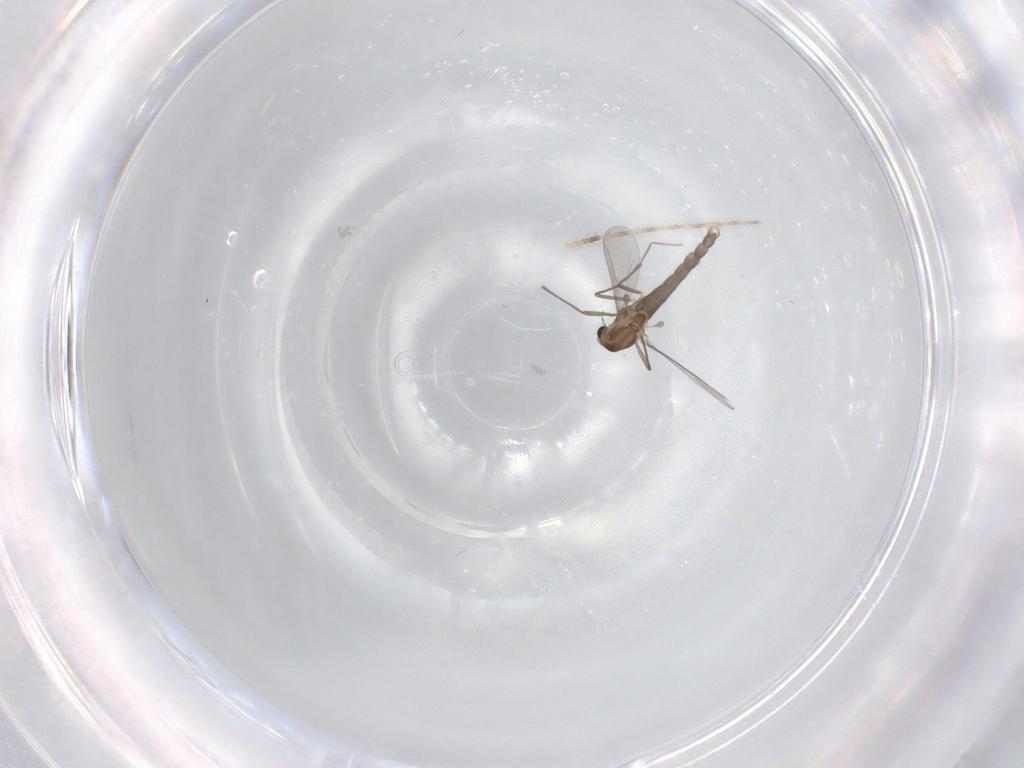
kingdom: Animalia
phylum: Arthropoda
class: Insecta
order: Diptera
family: Chironomidae
